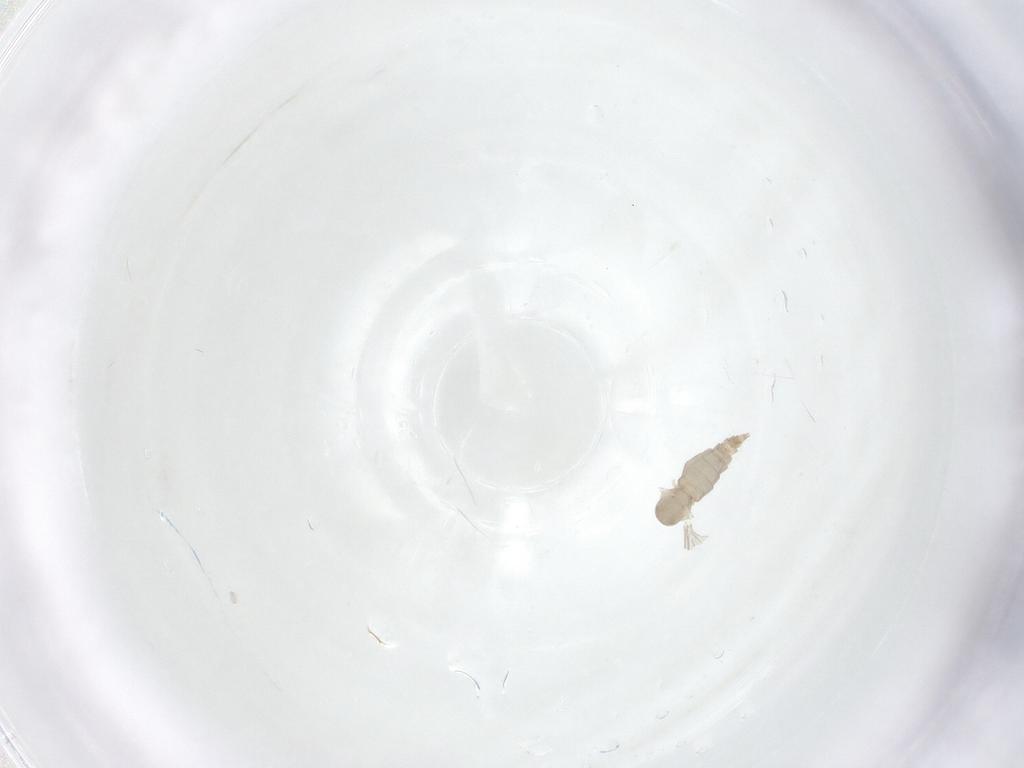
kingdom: Animalia
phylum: Arthropoda
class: Insecta
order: Diptera
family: Cecidomyiidae
